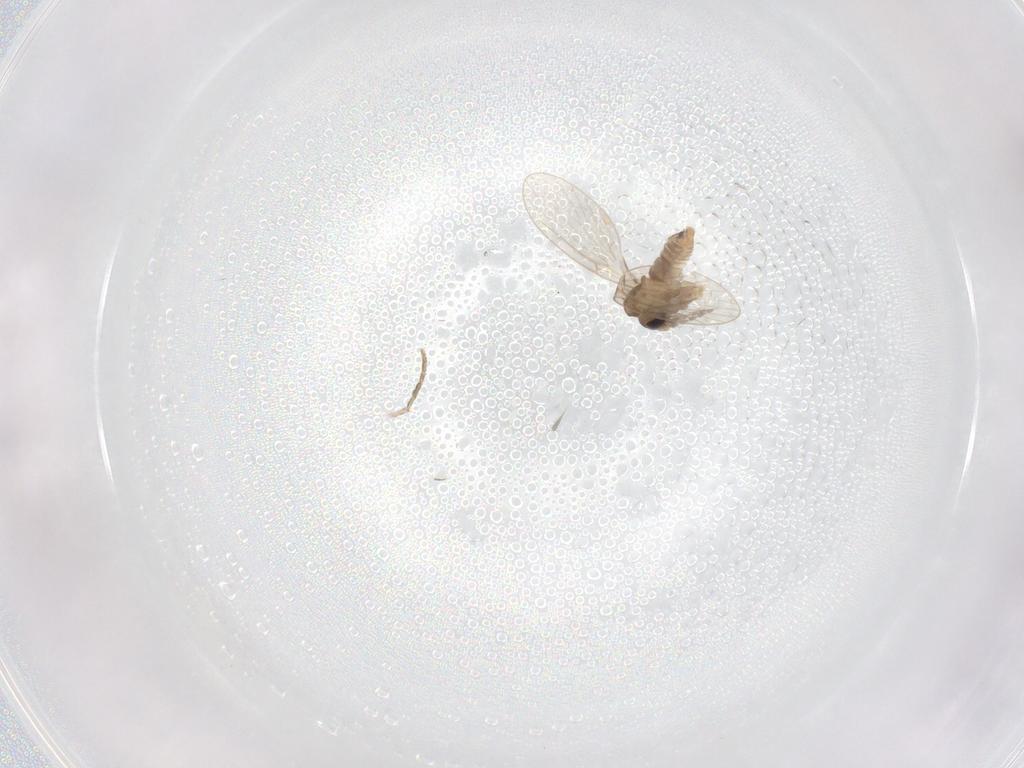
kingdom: Animalia
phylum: Arthropoda
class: Insecta
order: Diptera
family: Psychodidae
